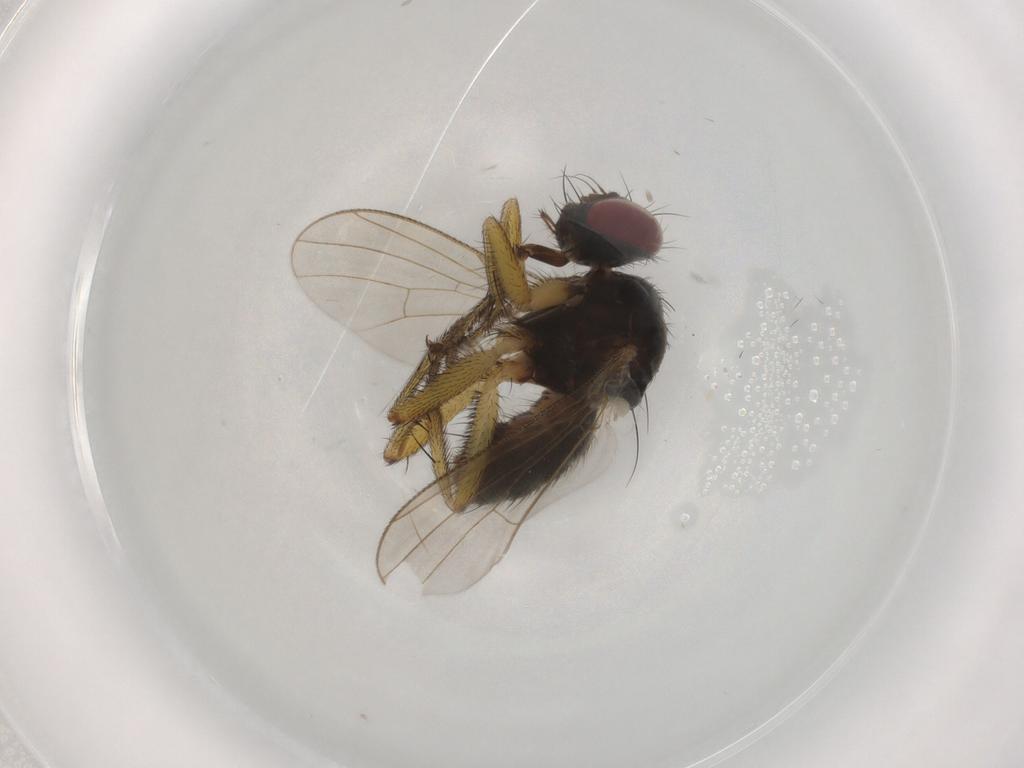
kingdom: Animalia
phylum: Arthropoda
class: Insecta
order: Diptera
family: Muscidae
